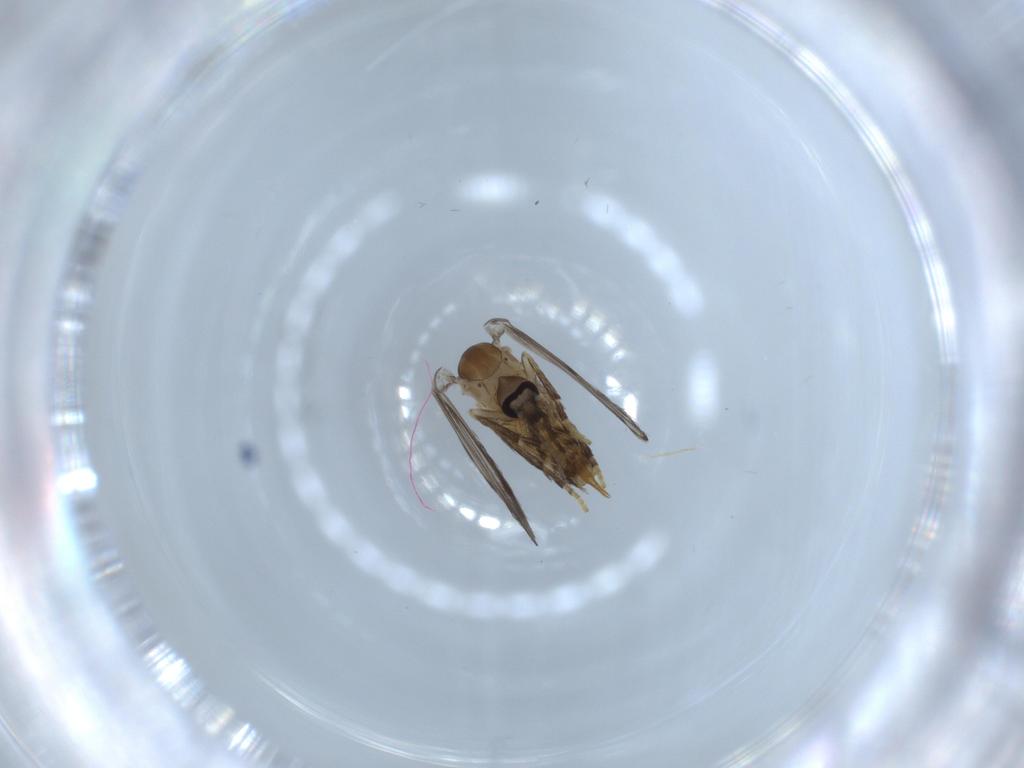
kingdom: Animalia
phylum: Arthropoda
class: Insecta
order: Diptera
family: Psychodidae
